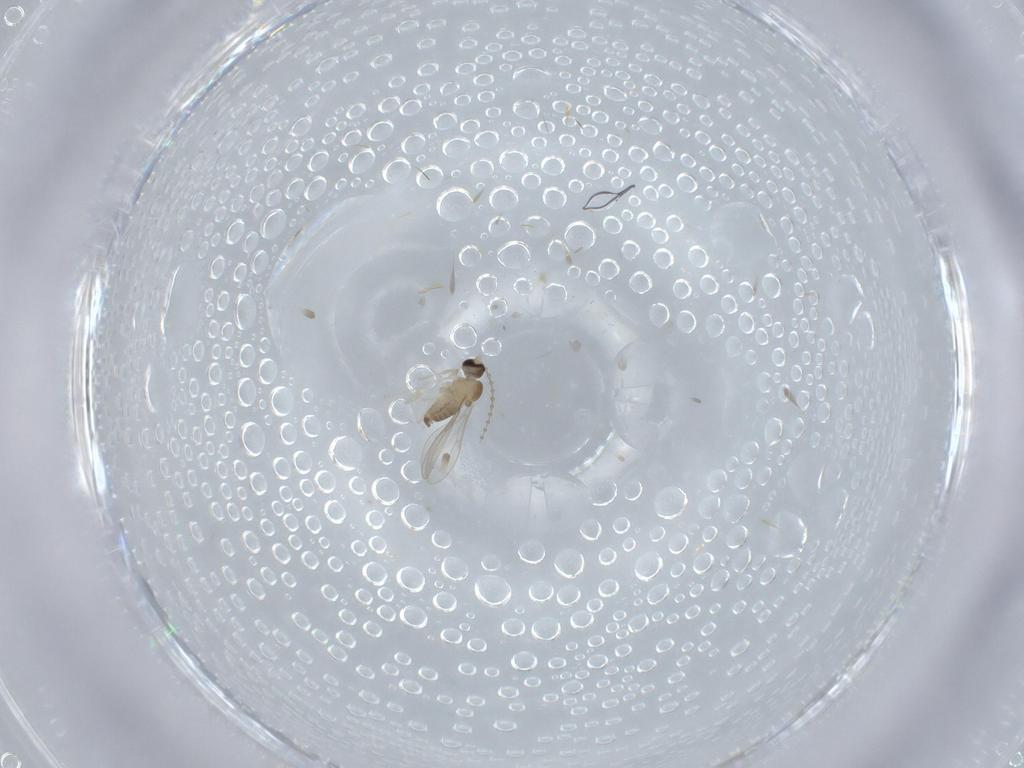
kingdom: Animalia
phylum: Arthropoda
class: Insecta
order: Diptera
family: Cecidomyiidae
